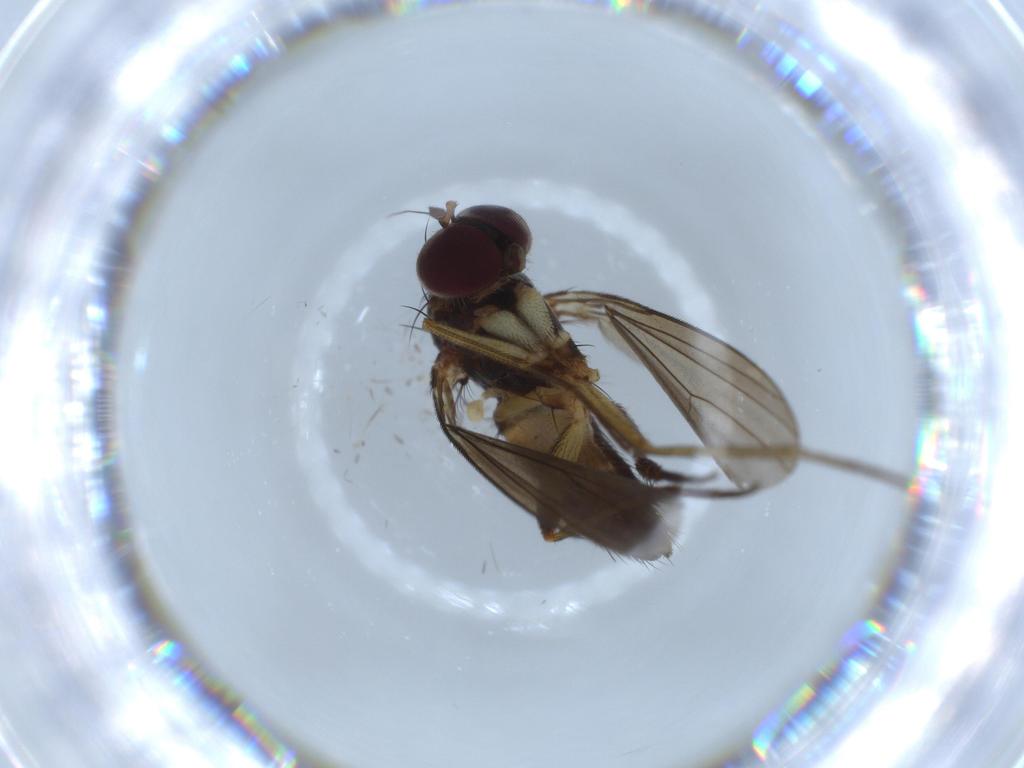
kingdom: Animalia
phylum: Arthropoda
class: Insecta
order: Diptera
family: Dolichopodidae
